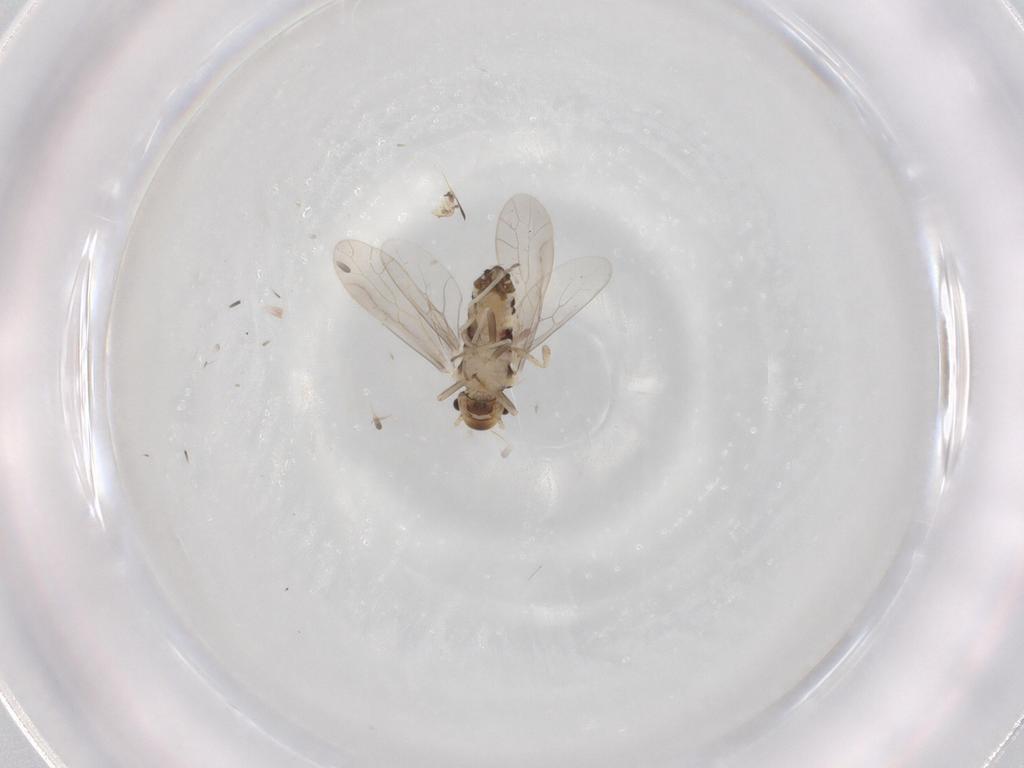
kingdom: Animalia
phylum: Arthropoda
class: Insecta
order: Psocodea
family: Ectopsocidae
